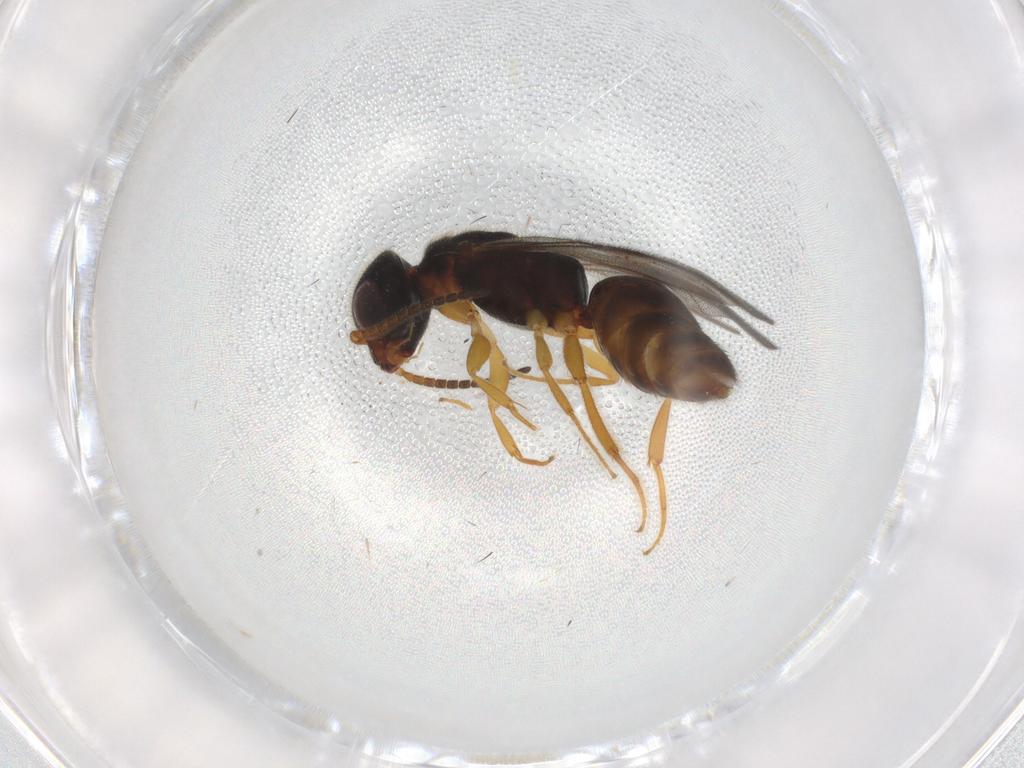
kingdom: Animalia
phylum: Arthropoda
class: Insecta
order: Hymenoptera
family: Bethylidae
